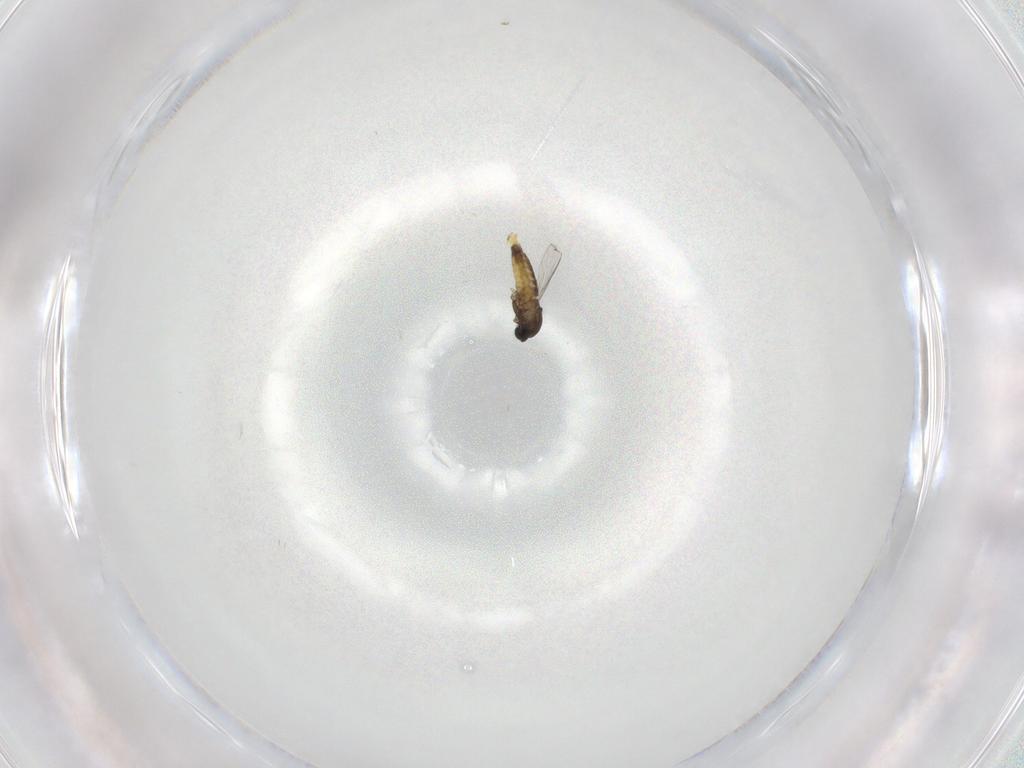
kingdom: Animalia
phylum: Arthropoda
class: Insecta
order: Diptera
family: Chironomidae
